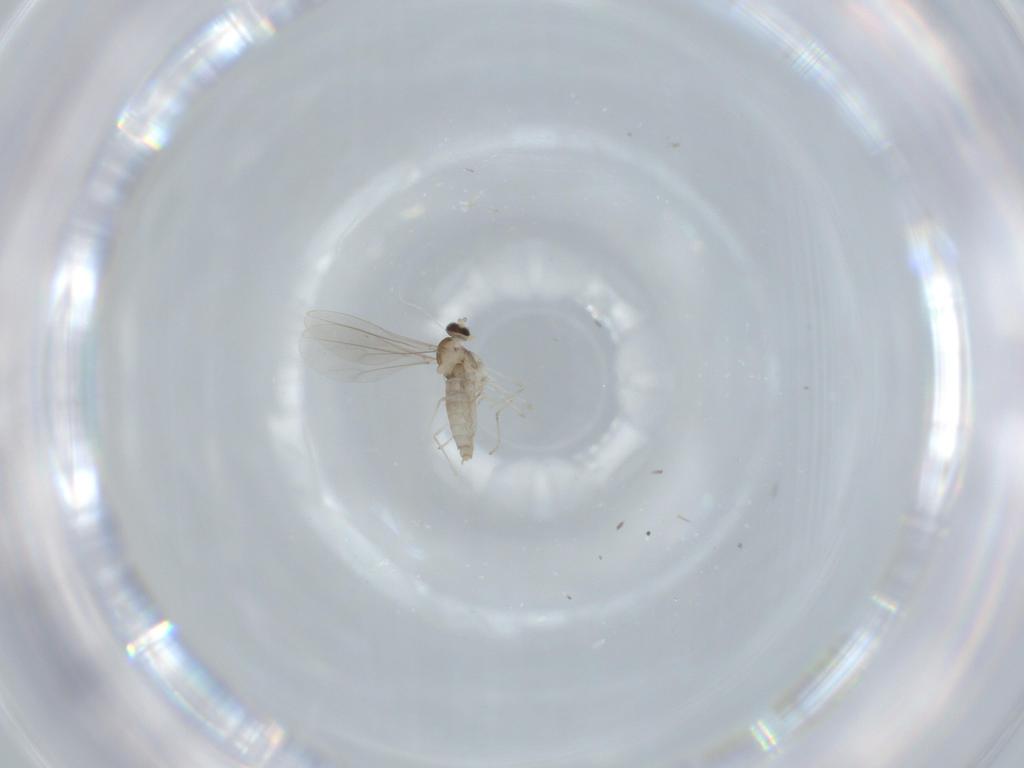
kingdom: Animalia
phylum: Arthropoda
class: Insecta
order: Diptera
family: Cecidomyiidae
